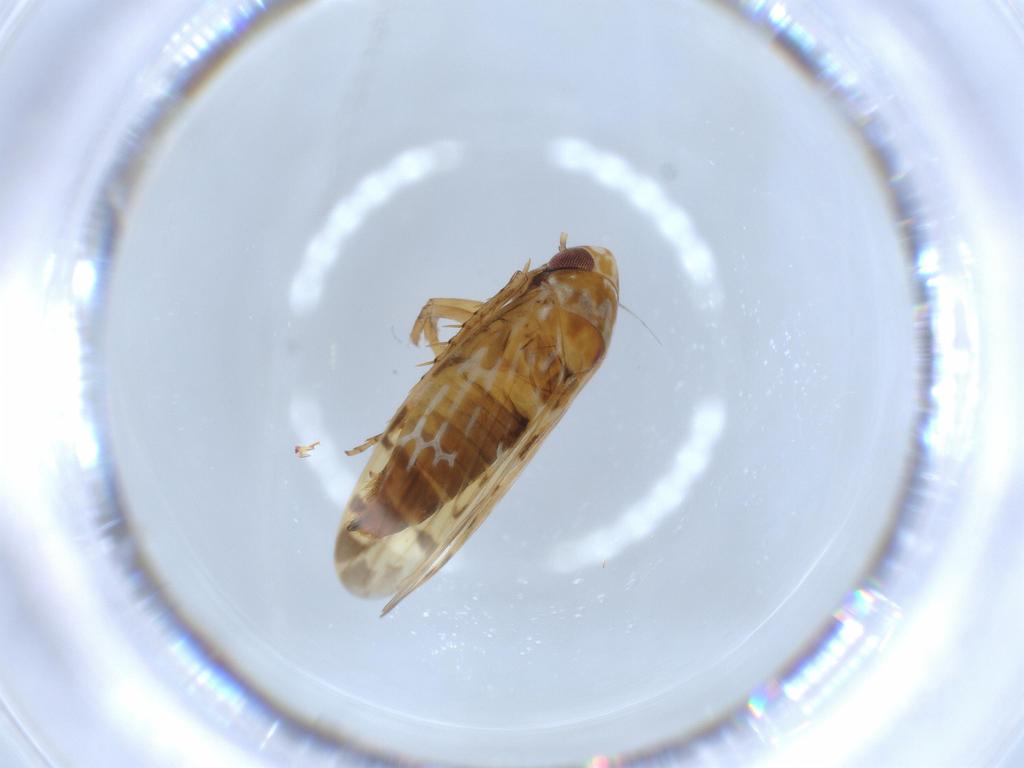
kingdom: Animalia
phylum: Arthropoda
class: Insecta
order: Hemiptera
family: Cicadellidae
